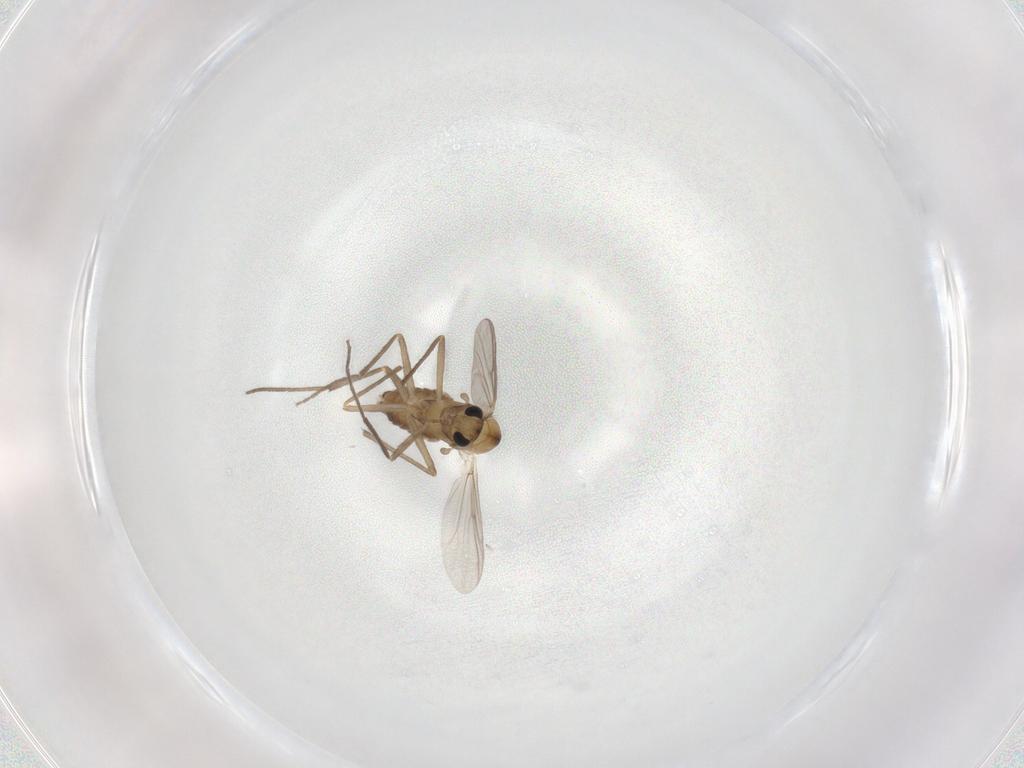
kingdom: Animalia
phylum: Arthropoda
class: Insecta
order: Diptera
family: Chironomidae
